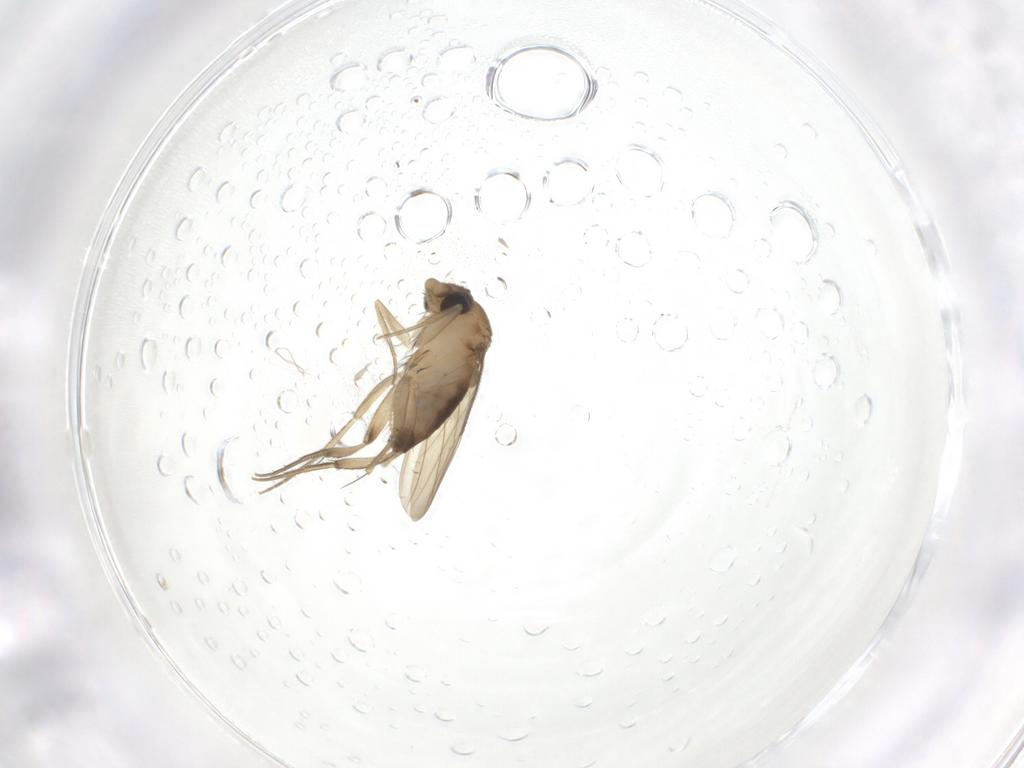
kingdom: Animalia
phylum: Arthropoda
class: Insecta
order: Diptera
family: Chironomidae
